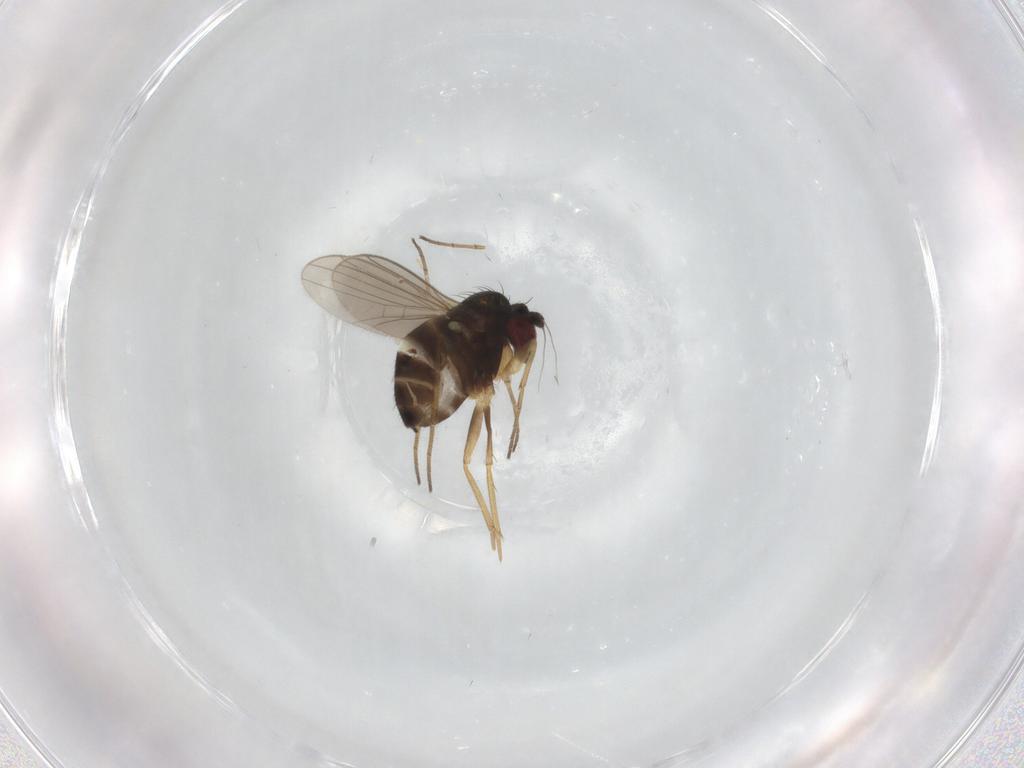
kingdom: Animalia
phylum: Arthropoda
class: Insecta
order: Diptera
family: Dolichopodidae
